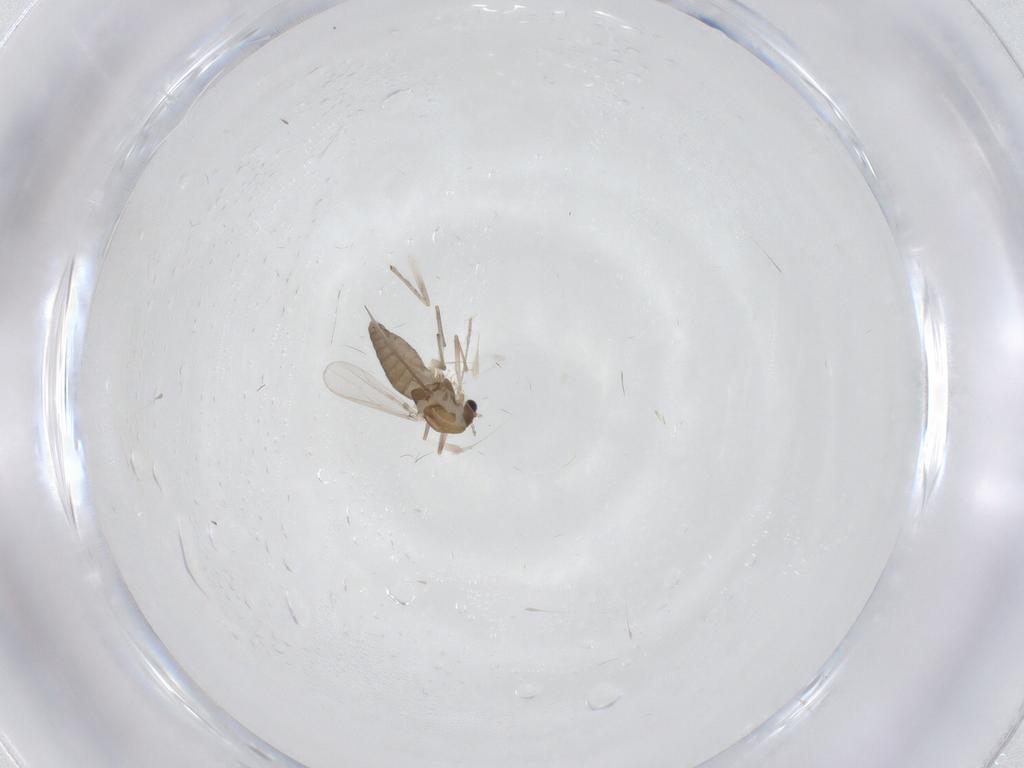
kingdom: Animalia
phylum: Arthropoda
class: Insecta
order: Diptera
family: Chironomidae
